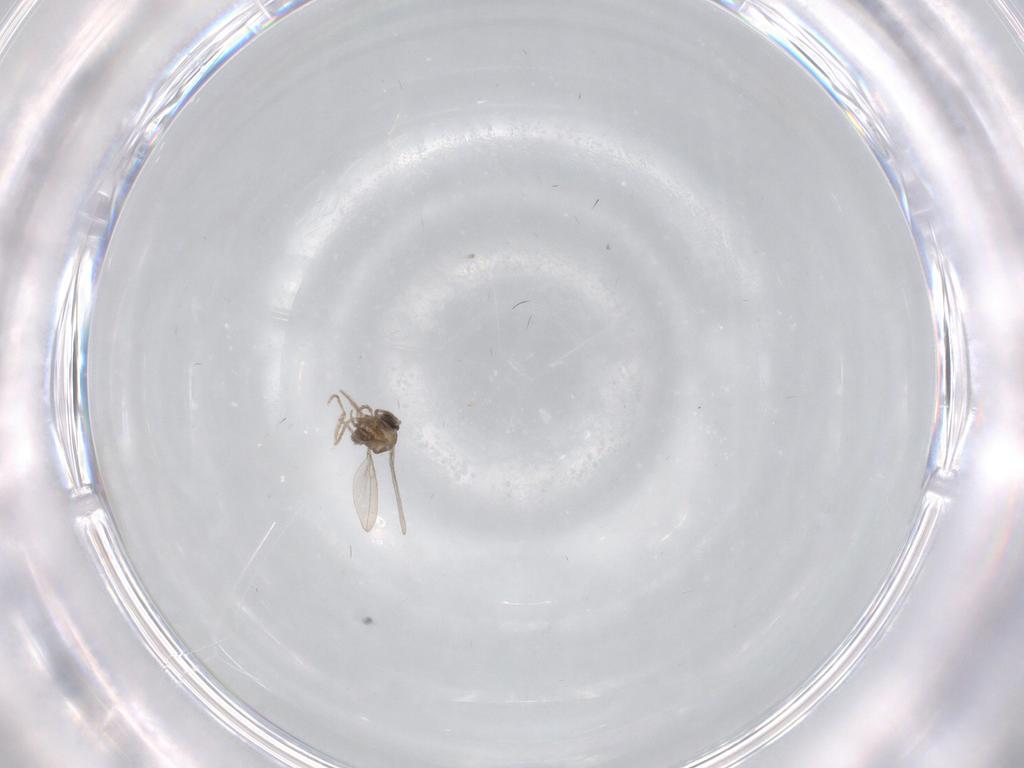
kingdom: Animalia
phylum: Arthropoda
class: Insecta
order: Diptera
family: Cecidomyiidae
